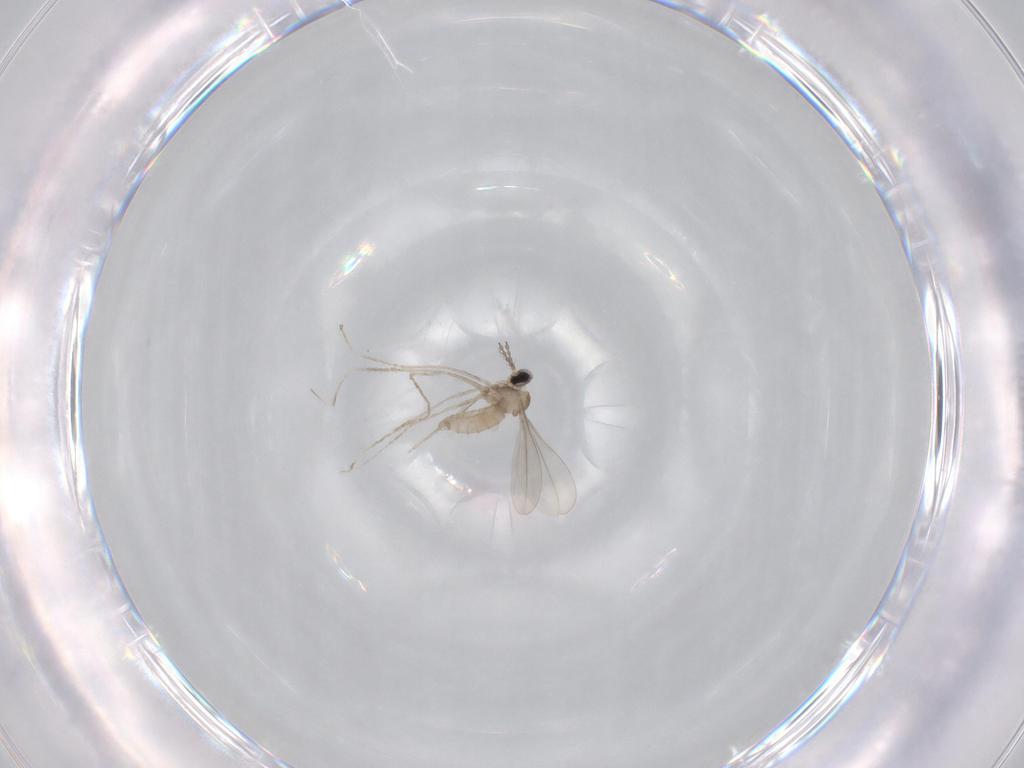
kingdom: Animalia
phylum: Arthropoda
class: Insecta
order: Diptera
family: Cecidomyiidae
